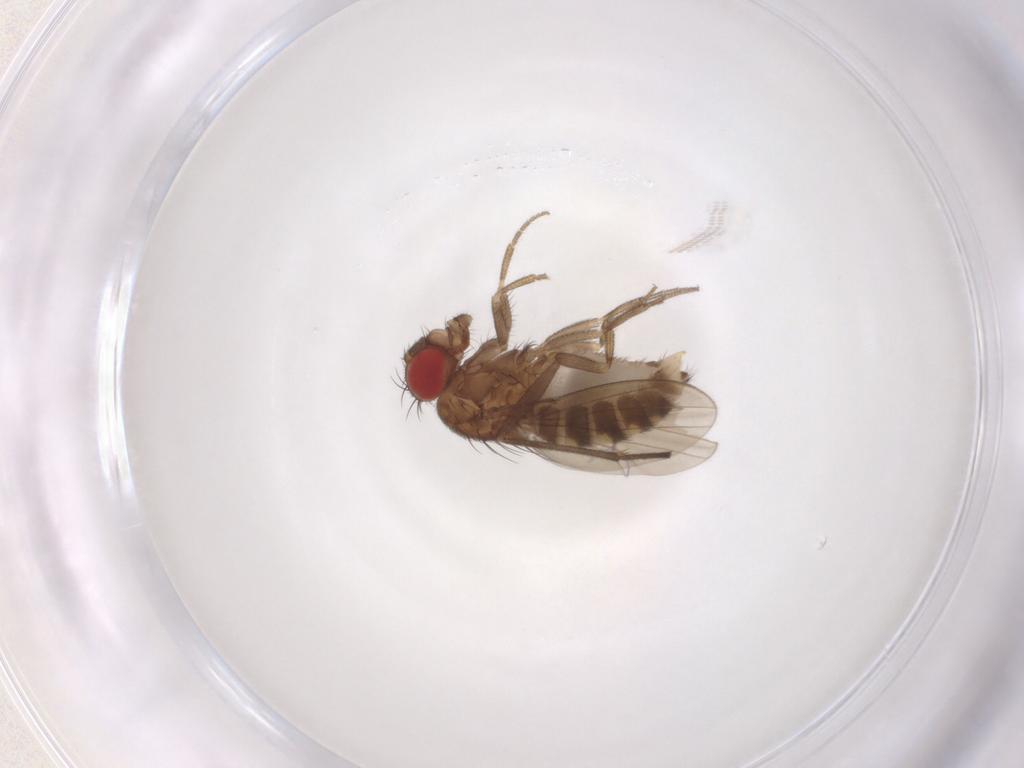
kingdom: Animalia
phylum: Arthropoda
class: Insecta
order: Diptera
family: Drosophilidae
